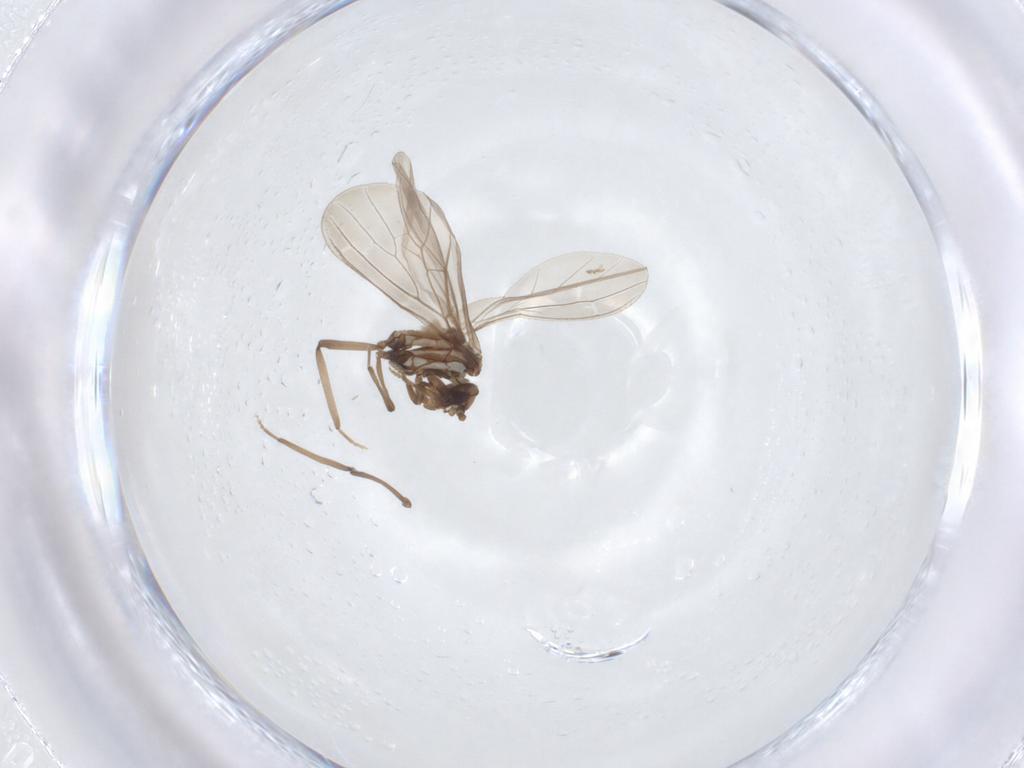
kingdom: Animalia
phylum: Arthropoda
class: Insecta
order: Neuroptera
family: Coniopterygidae
